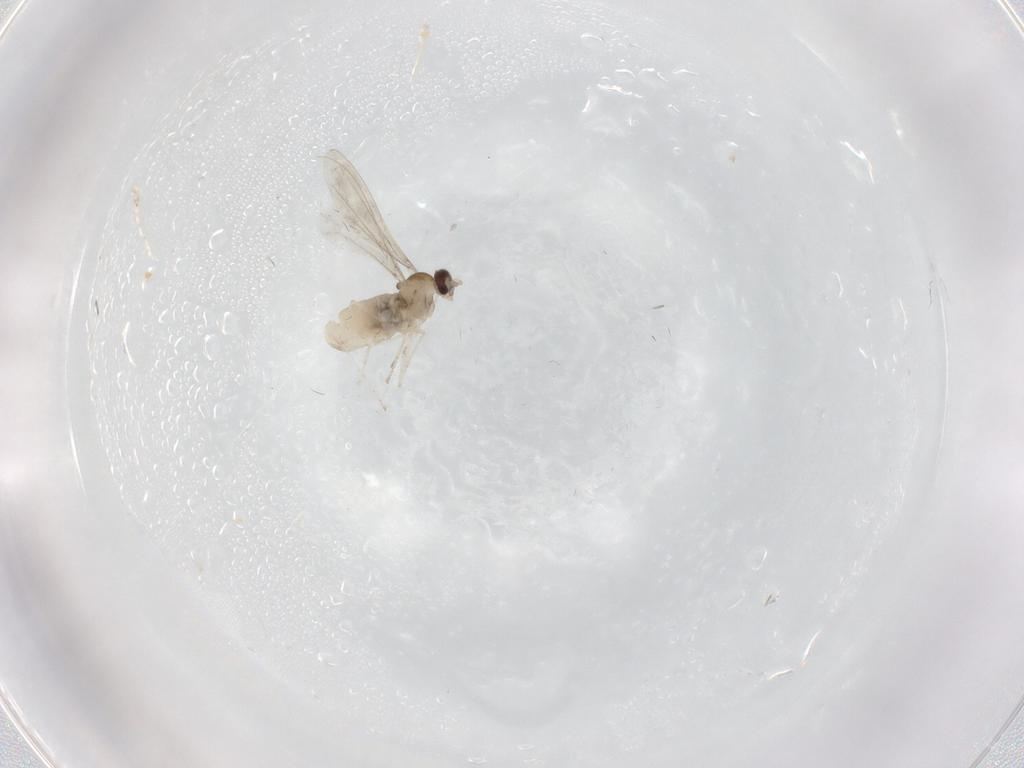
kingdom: Animalia
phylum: Arthropoda
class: Insecta
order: Diptera
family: Cecidomyiidae
